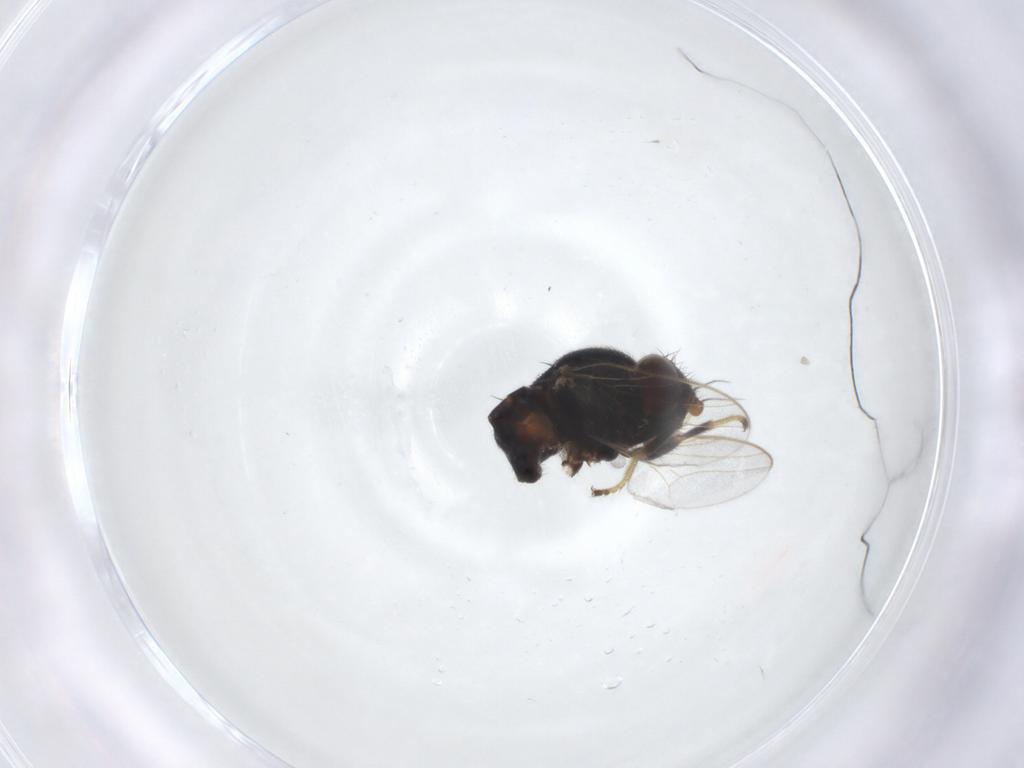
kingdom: Animalia
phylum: Arthropoda
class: Insecta
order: Diptera
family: Chloropidae
